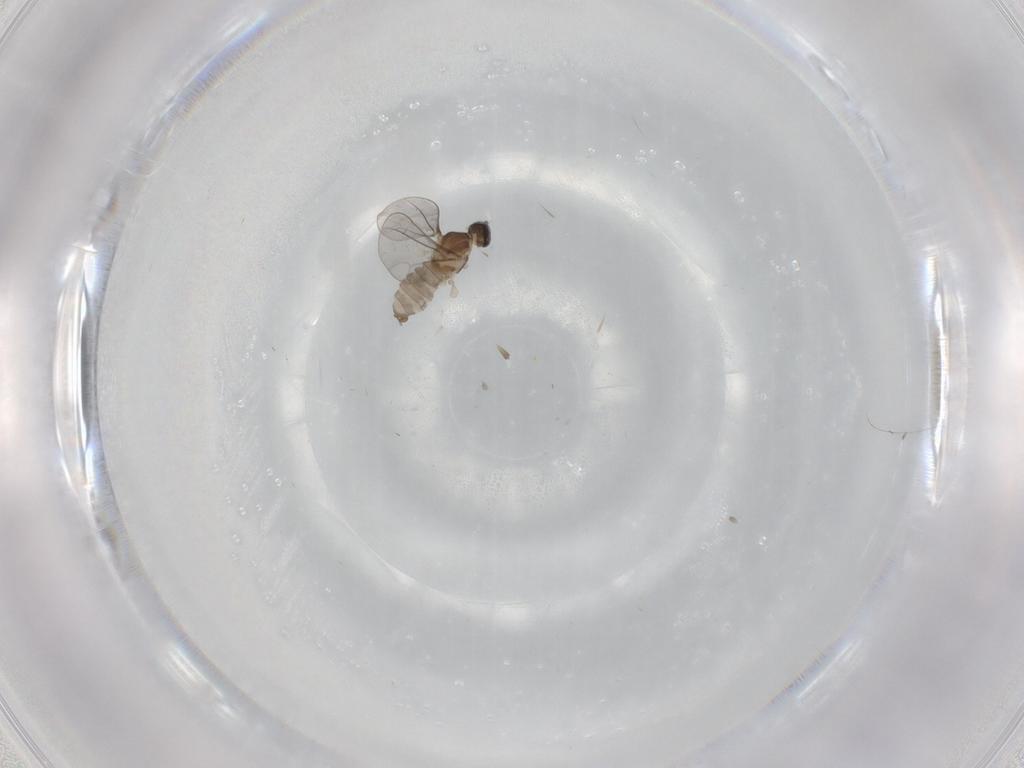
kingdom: Animalia
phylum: Arthropoda
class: Insecta
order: Diptera
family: Cecidomyiidae
